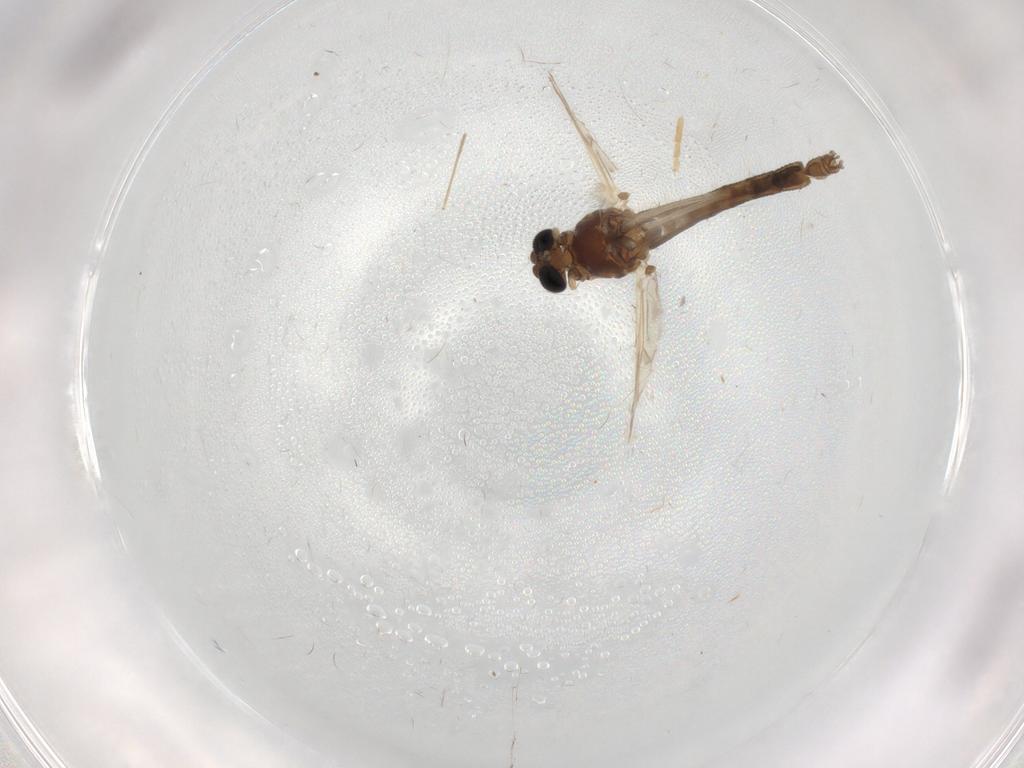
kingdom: Animalia
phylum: Arthropoda
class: Insecta
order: Diptera
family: Chironomidae
